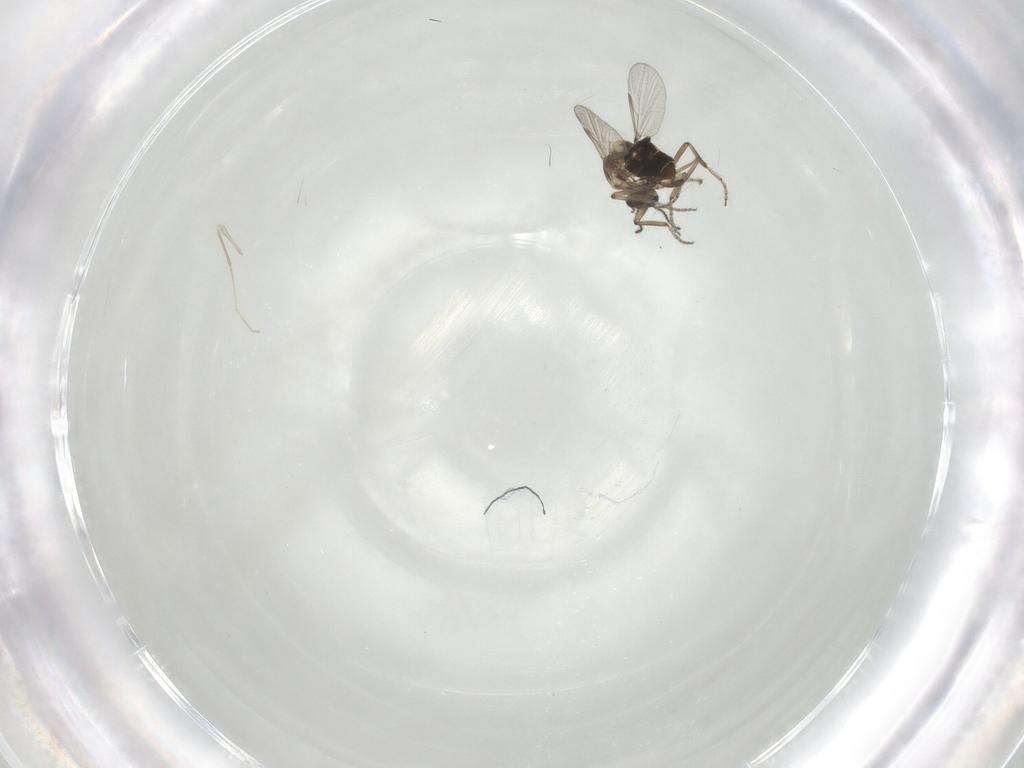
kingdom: Animalia
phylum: Arthropoda
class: Insecta
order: Diptera
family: Ceratopogonidae
